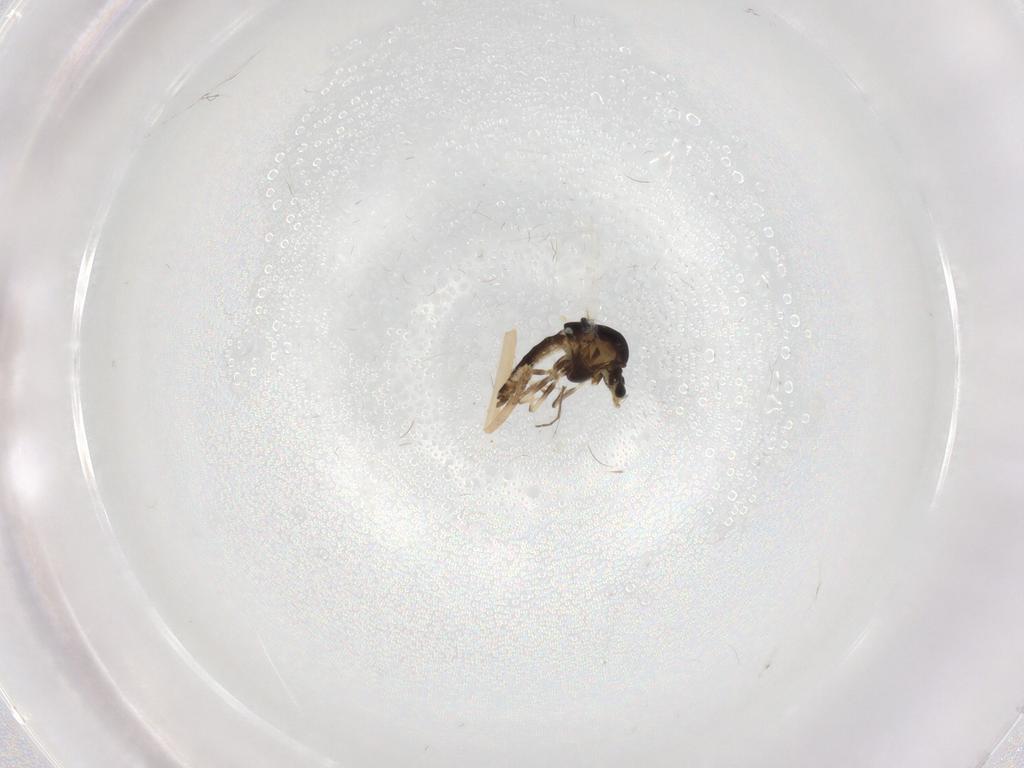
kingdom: Animalia
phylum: Arthropoda
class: Insecta
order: Diptera
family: Chironomidae
